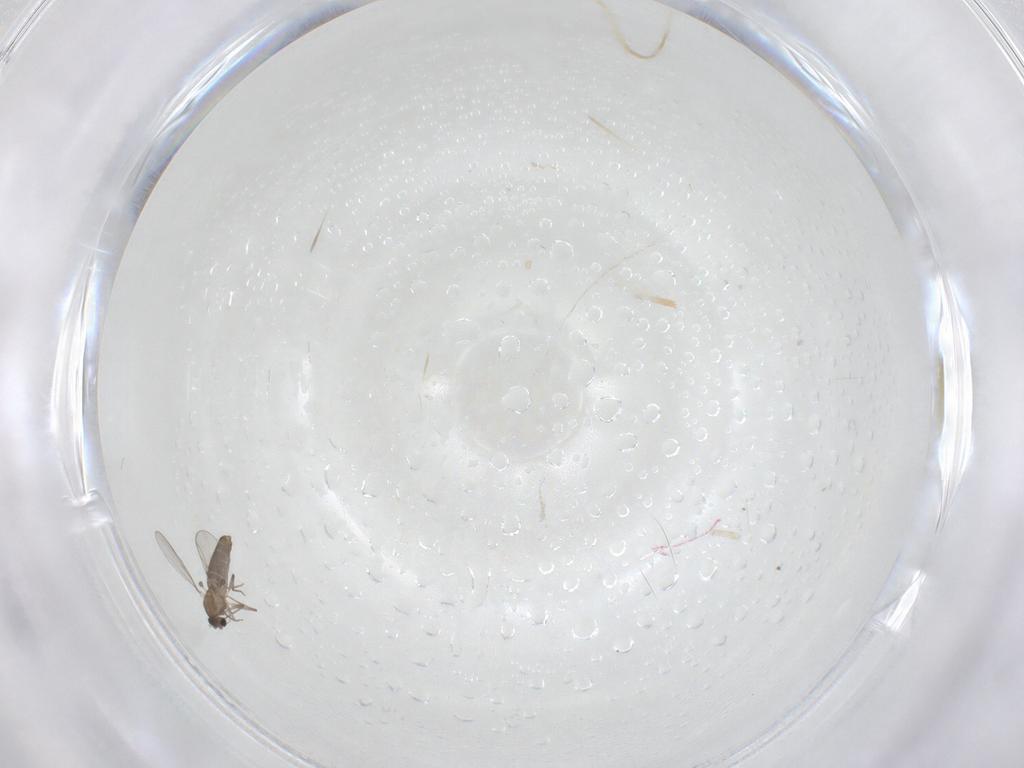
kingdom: Animalia
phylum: Arthropoda
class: Insecta
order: Diptera
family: Chironomidae
